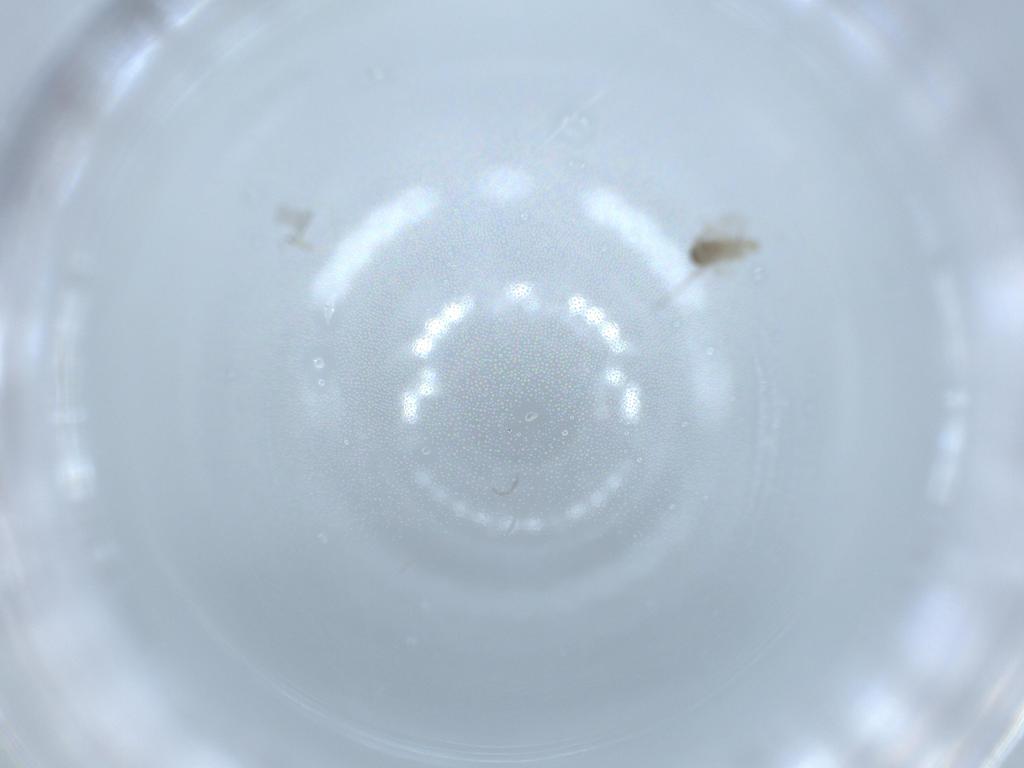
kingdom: Animalia
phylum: Arthropoda
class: Insecta
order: Diptera
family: Cecidomyiidae
